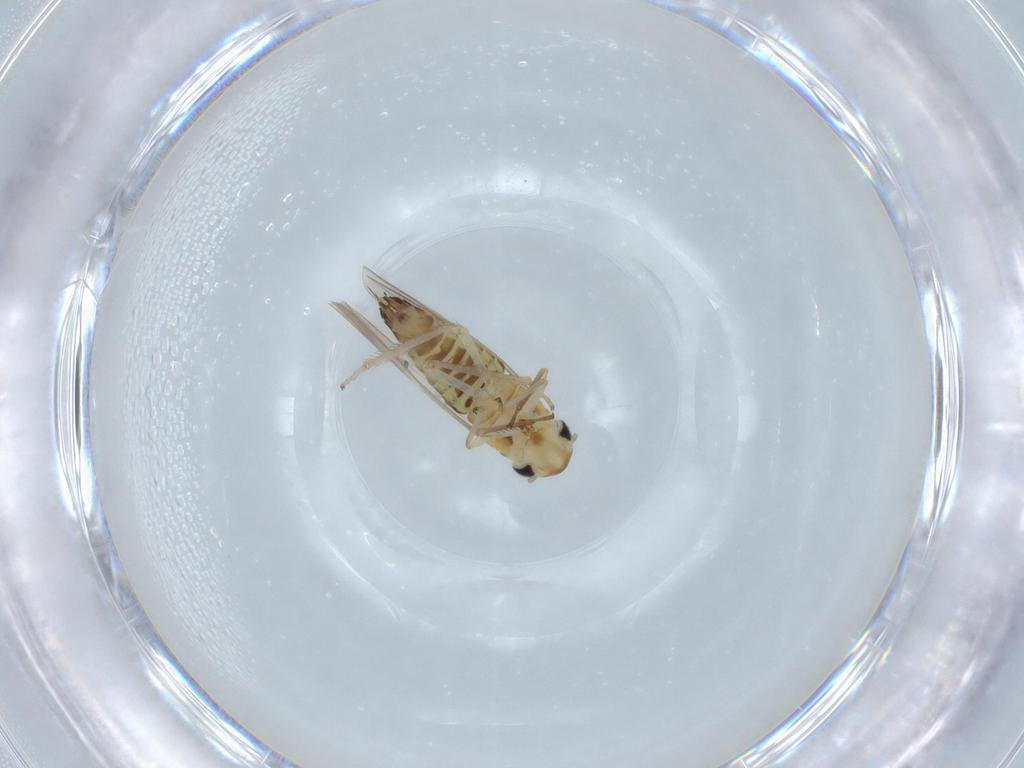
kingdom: Animalia
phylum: Arthropoda
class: Insecta
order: Hemiptera
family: Cicadellidae
